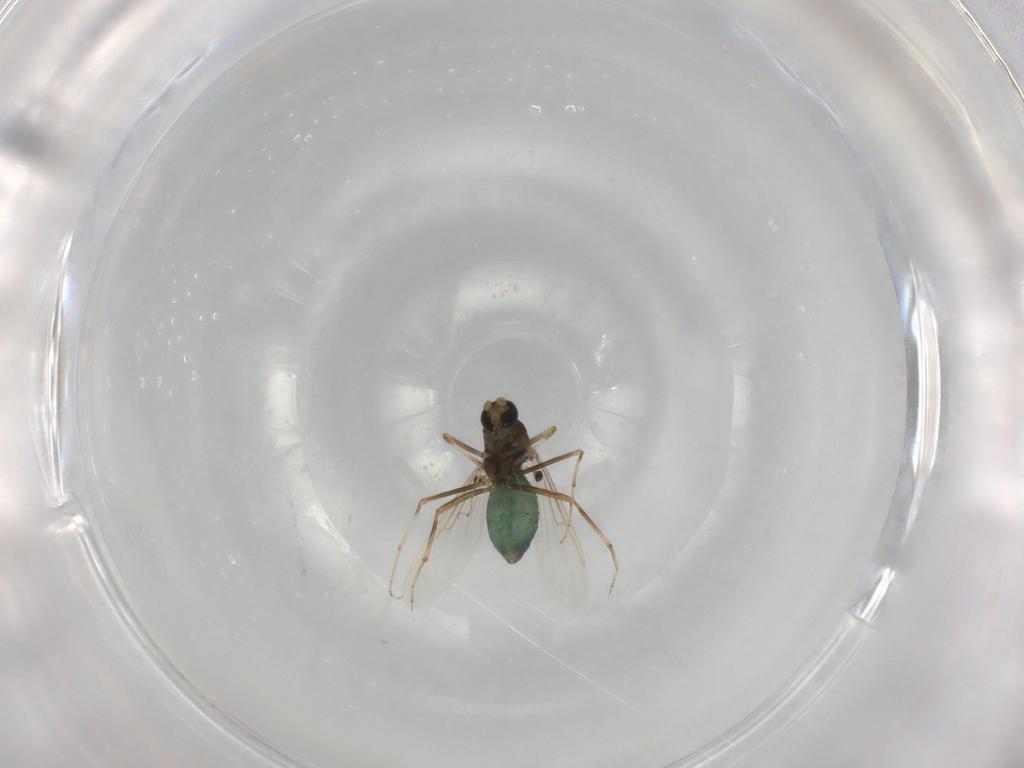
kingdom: Animalia
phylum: Arthropoda
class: Insecta
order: Diptera
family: Ceratopogonidae
